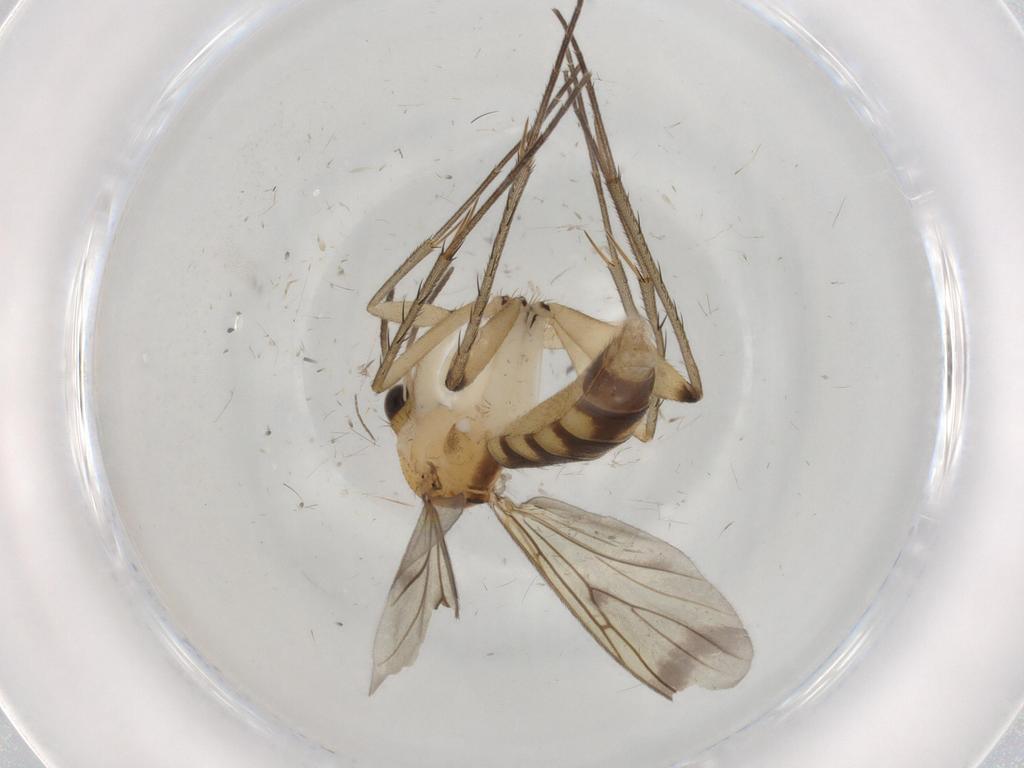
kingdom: Animalia
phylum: Arthropoda
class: Insecta
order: Diptera
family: Mycetophilidae
